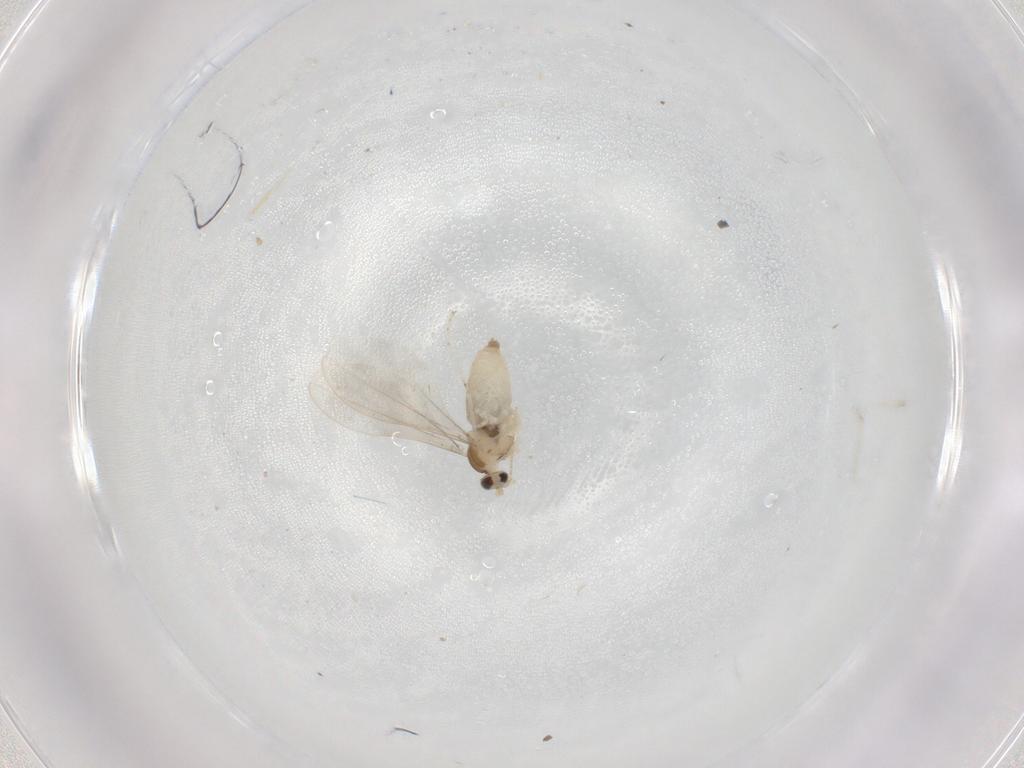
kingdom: Animalia
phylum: Arthropoda
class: Insecta
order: Diptera
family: Cecidomyiidae
